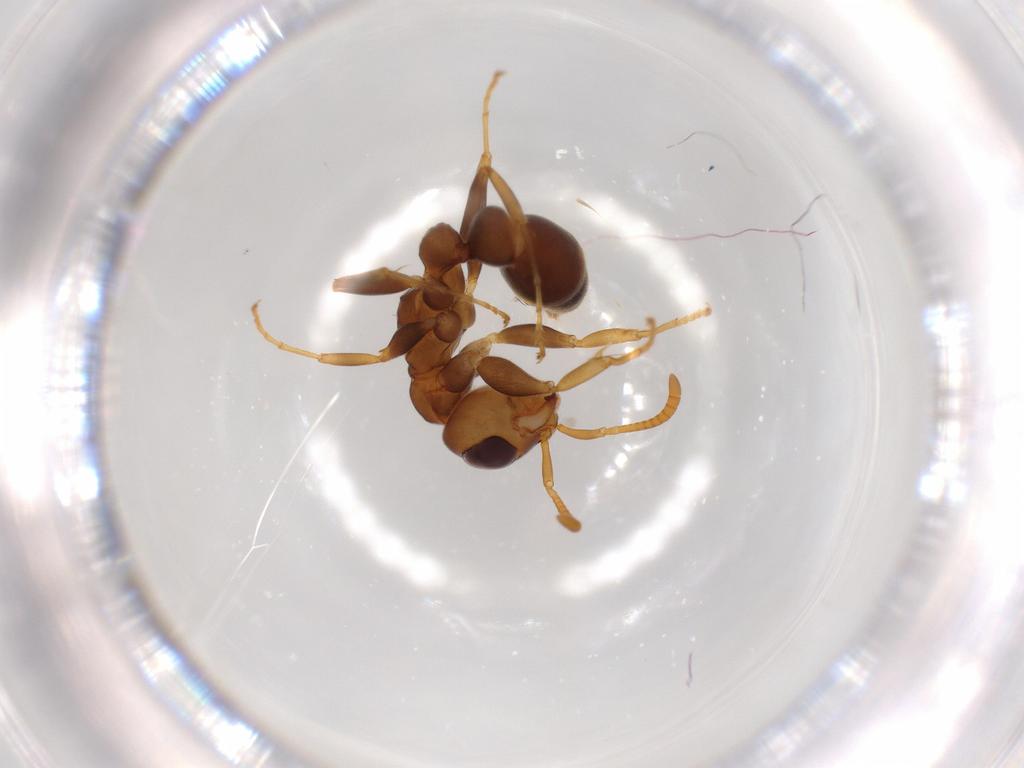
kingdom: Animalia
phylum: Arthropoda
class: Insecta
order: Hymenoptera
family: Formicidae
